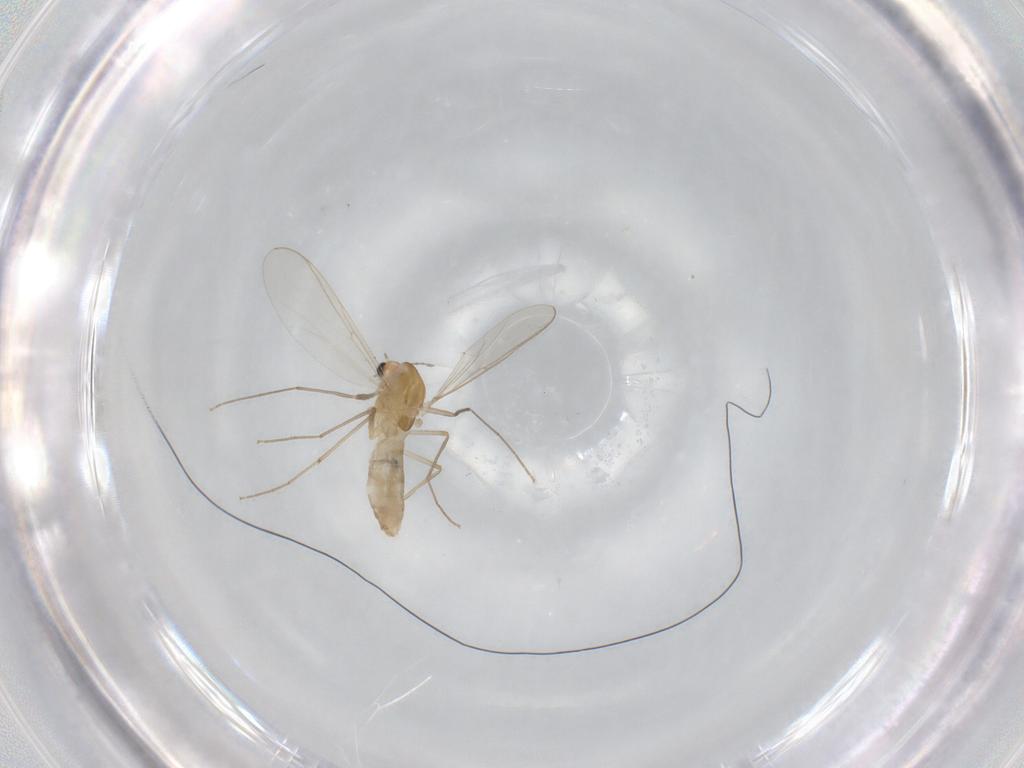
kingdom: Animalia
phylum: Arthropoda
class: Insecta
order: Diptera
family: Chironomidae
